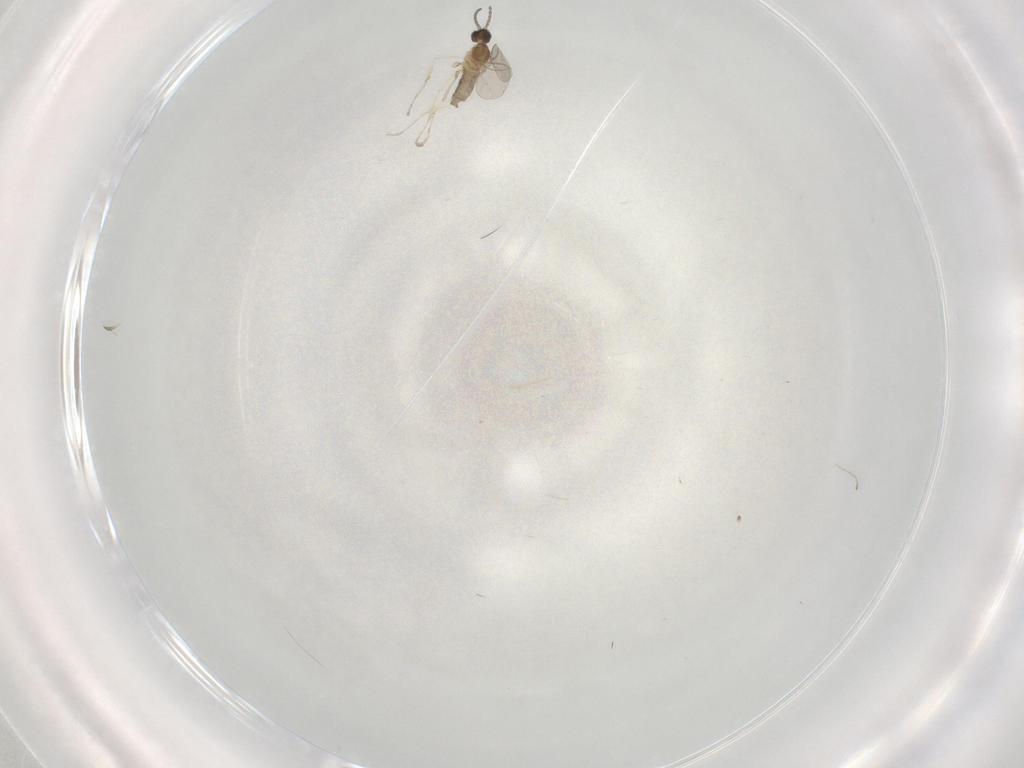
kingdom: Animalia
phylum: Arthropoda
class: Insecta
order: Diptera
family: Cecidomyiidae
